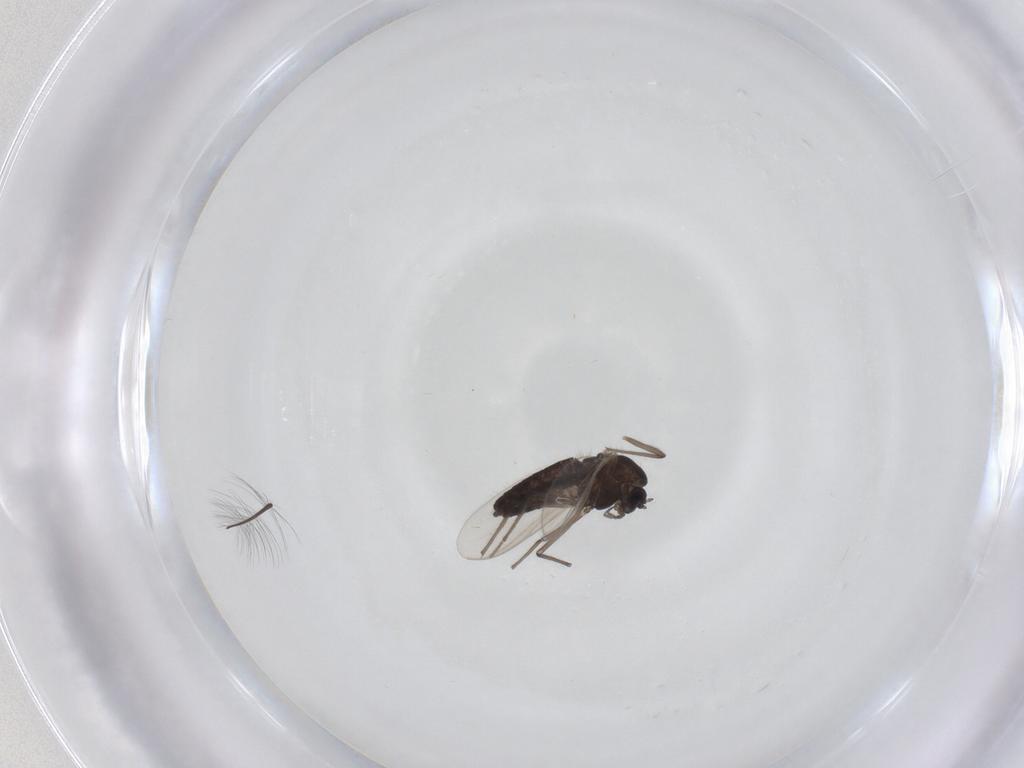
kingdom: Animalia
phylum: Arthropoda
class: Insecta
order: Diptera
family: Chironomidae
